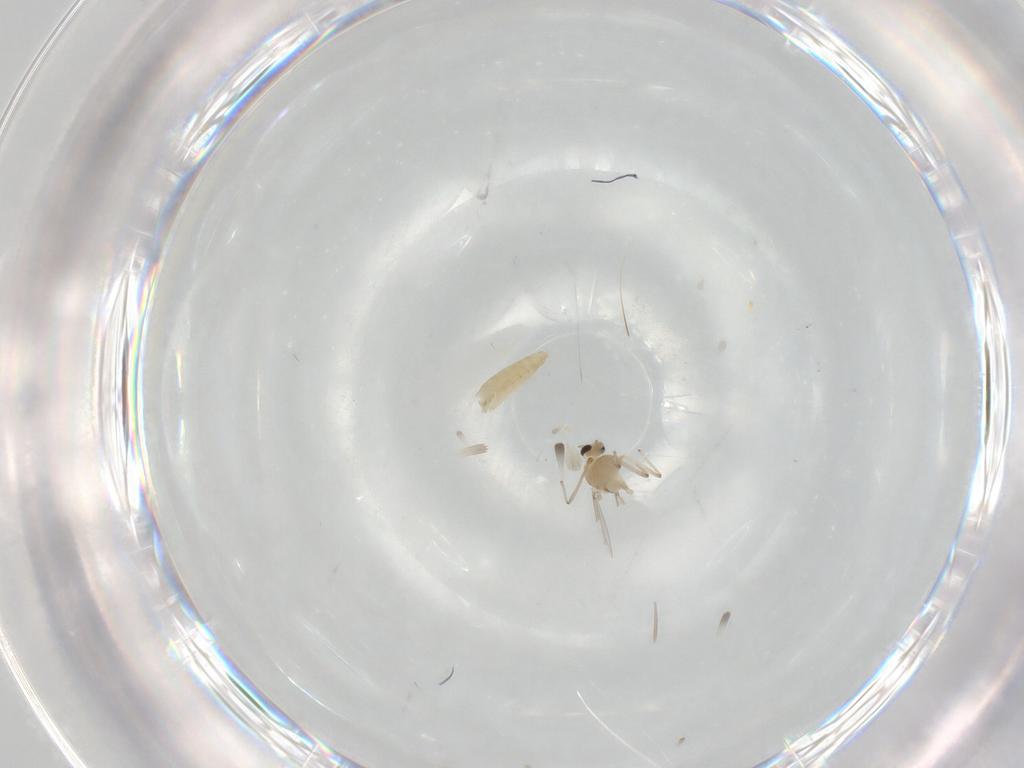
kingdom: Animalia
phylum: Arthropoda
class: Insecta
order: Diptera
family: Chironomidae
